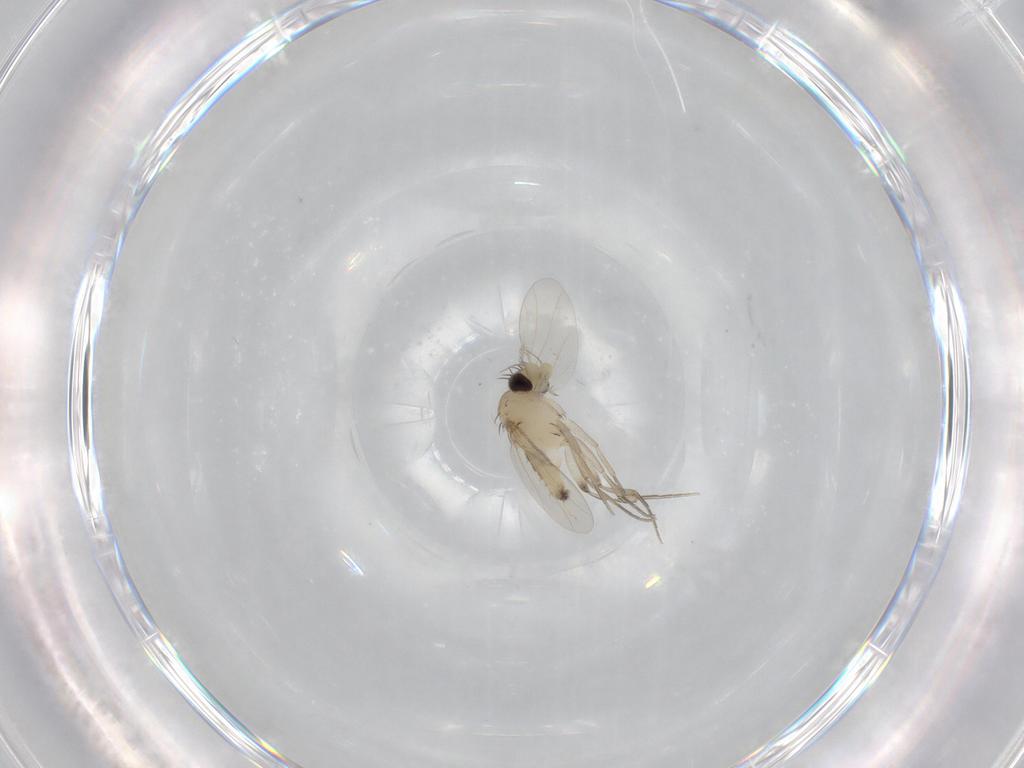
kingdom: Animalia
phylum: Arthropoda
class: Insecta
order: Diptera
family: Phoridae
